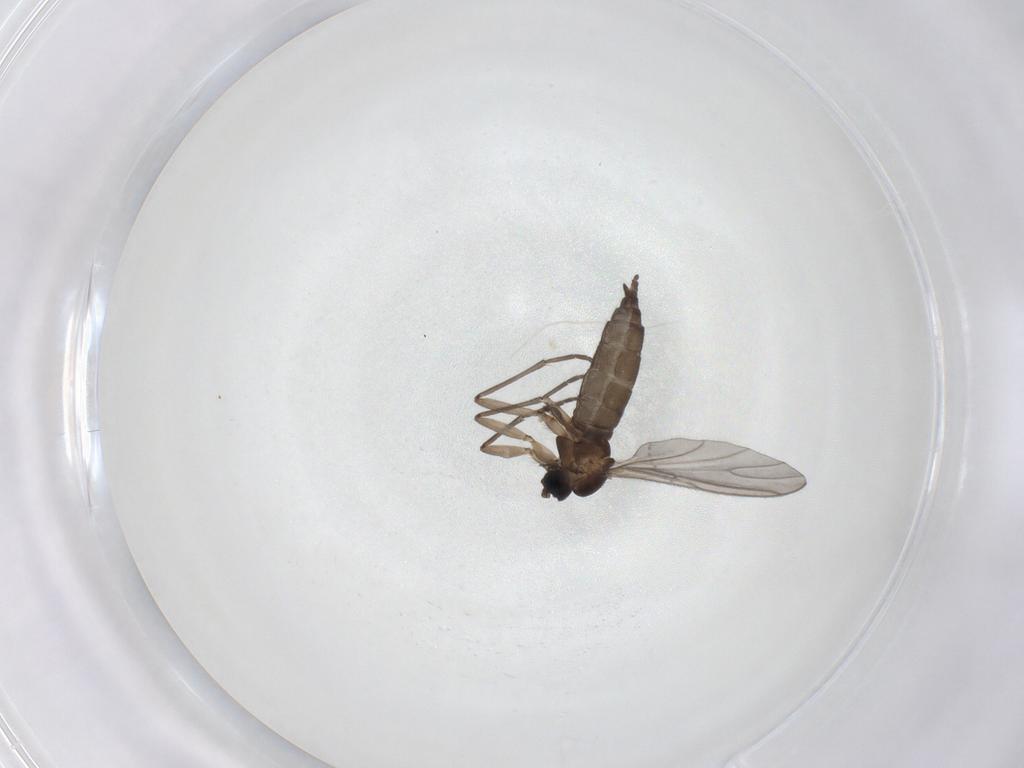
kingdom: Animalia
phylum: Arthropoda
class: Insecta
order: Diptera
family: Sciaridae
